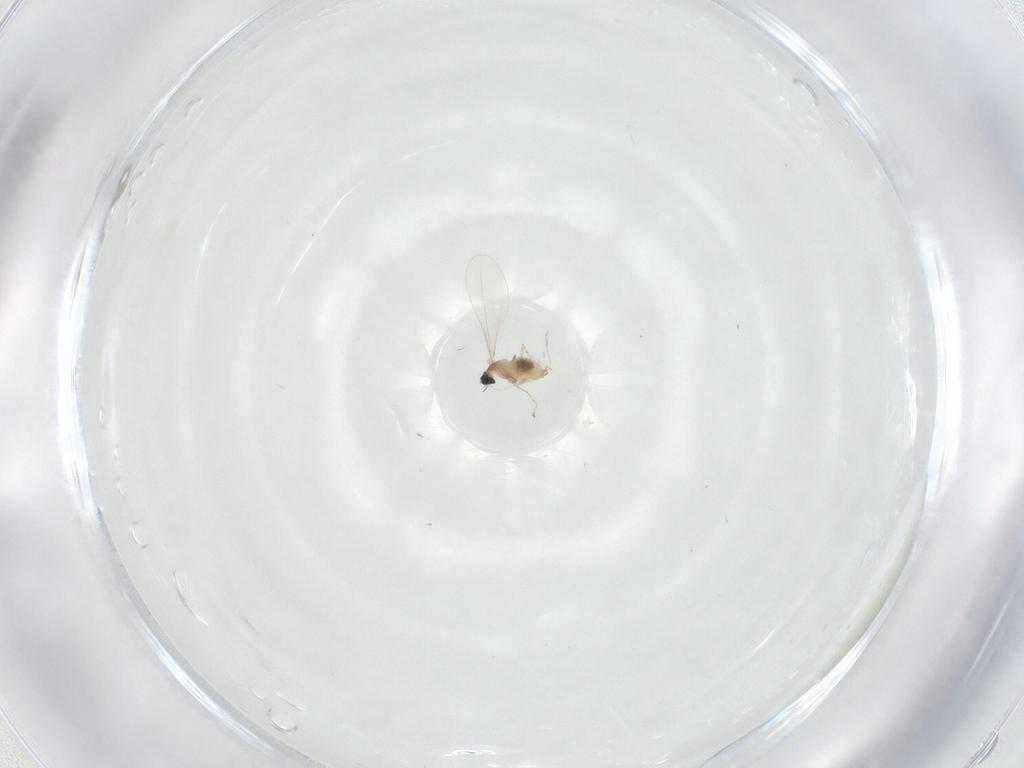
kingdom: Animalia
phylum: Arthropoda
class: Insecta
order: Diptera
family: Cecidomyiidae
